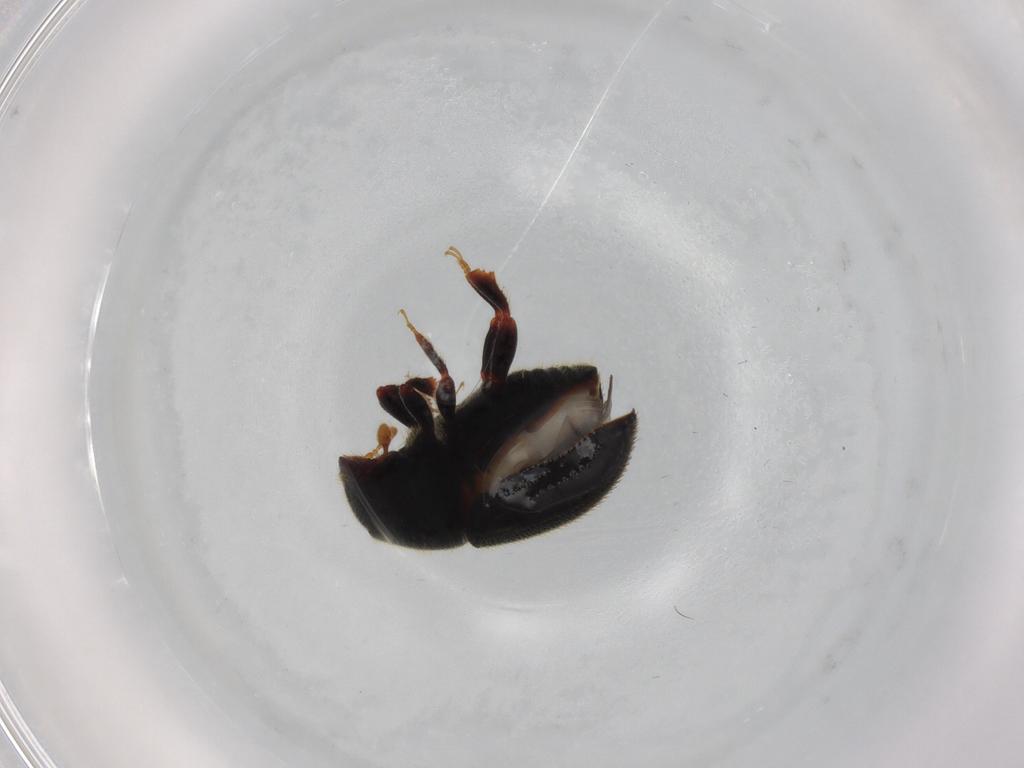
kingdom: Animalia
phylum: Arthropoda
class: Insecta
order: Coleoptera
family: Curculionidae
